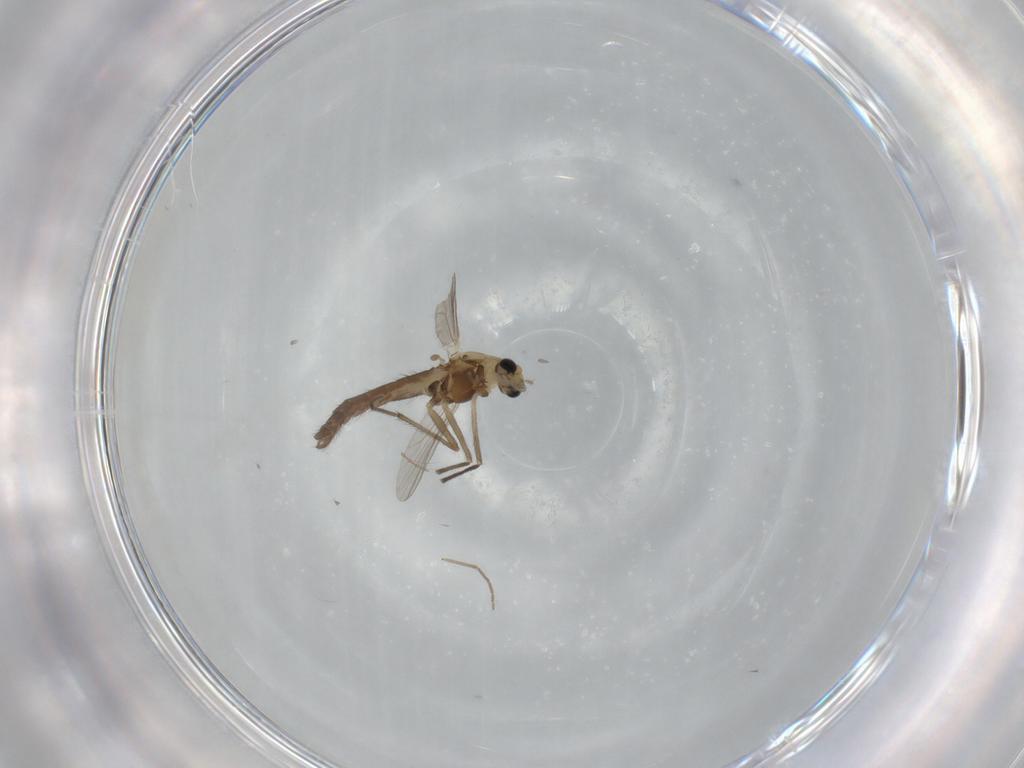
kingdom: Animalia
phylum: Arthropoda
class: Insecta
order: Diptera
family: Chironomidae
